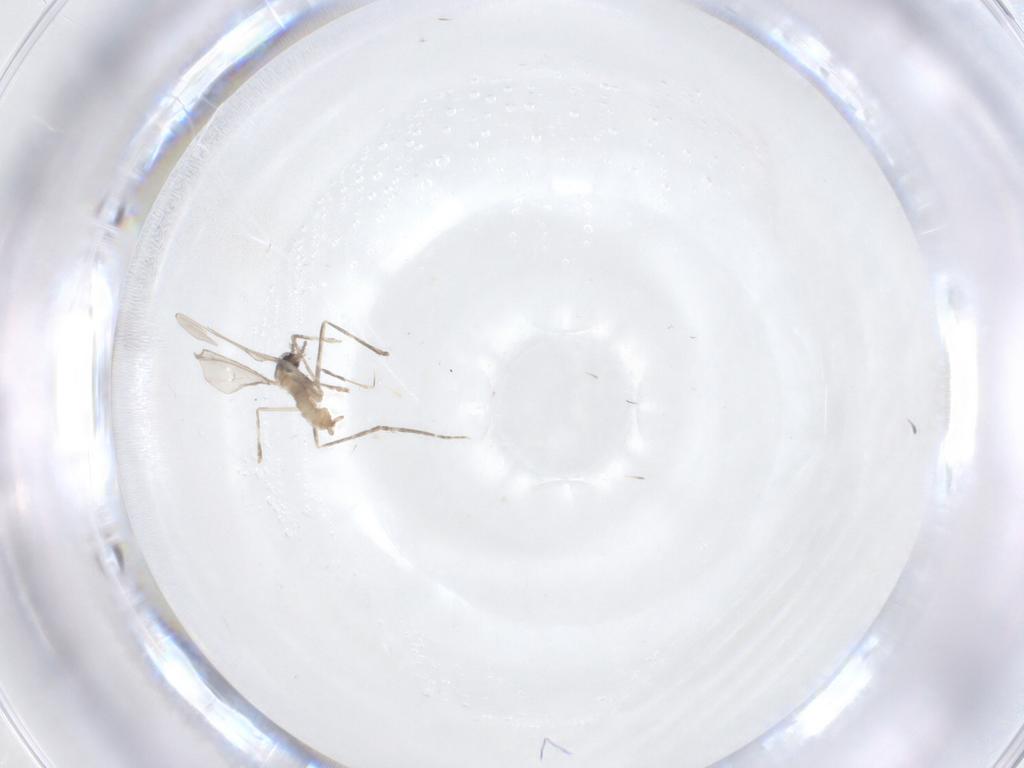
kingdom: Animalia
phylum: Arthropoda
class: Insecta
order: Diptera
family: Cecidomyiidae
